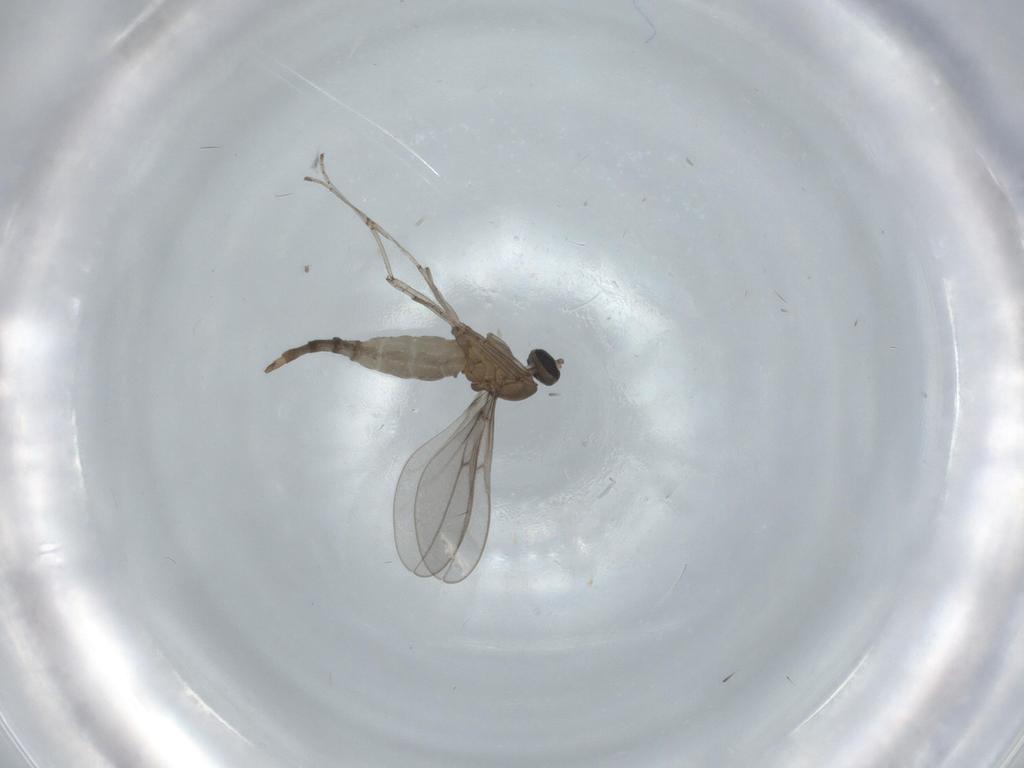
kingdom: Animalia
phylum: Arthropoda
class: Insecta
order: Diptera
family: Cecidomyiidae
